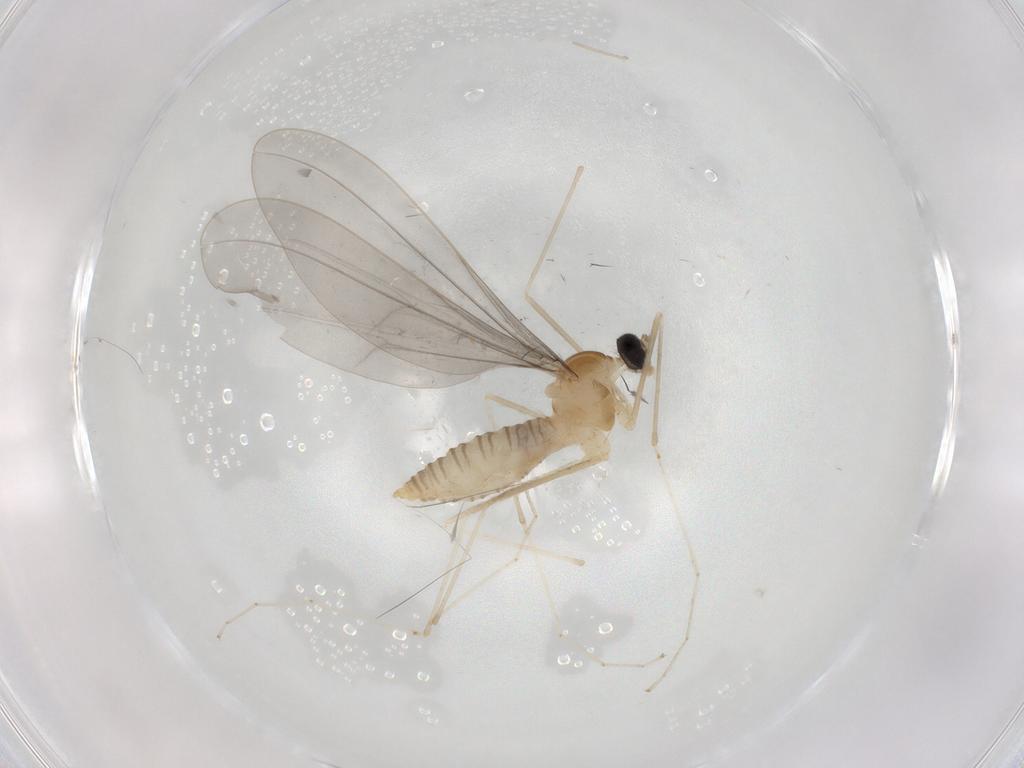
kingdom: Animalia
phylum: Arthropoda
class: Insecta
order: Diptera
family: Cecidomyiidae
